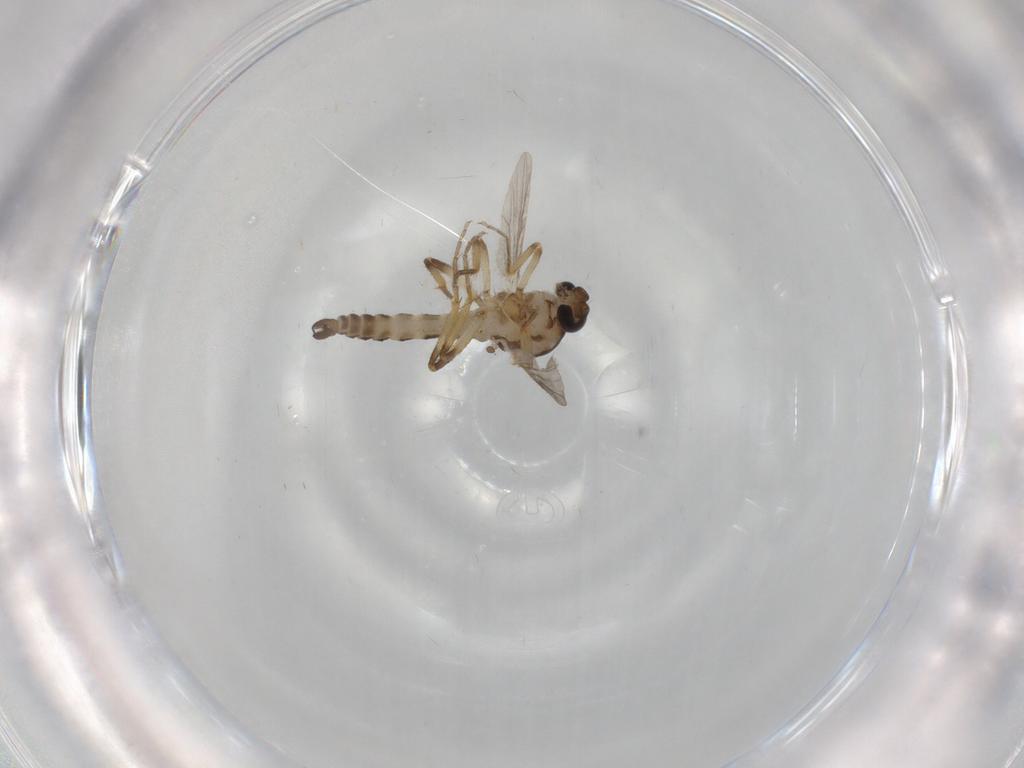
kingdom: Animalia
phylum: Arthropoda
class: Insecta
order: Diptera
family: Ceratopogonidae
